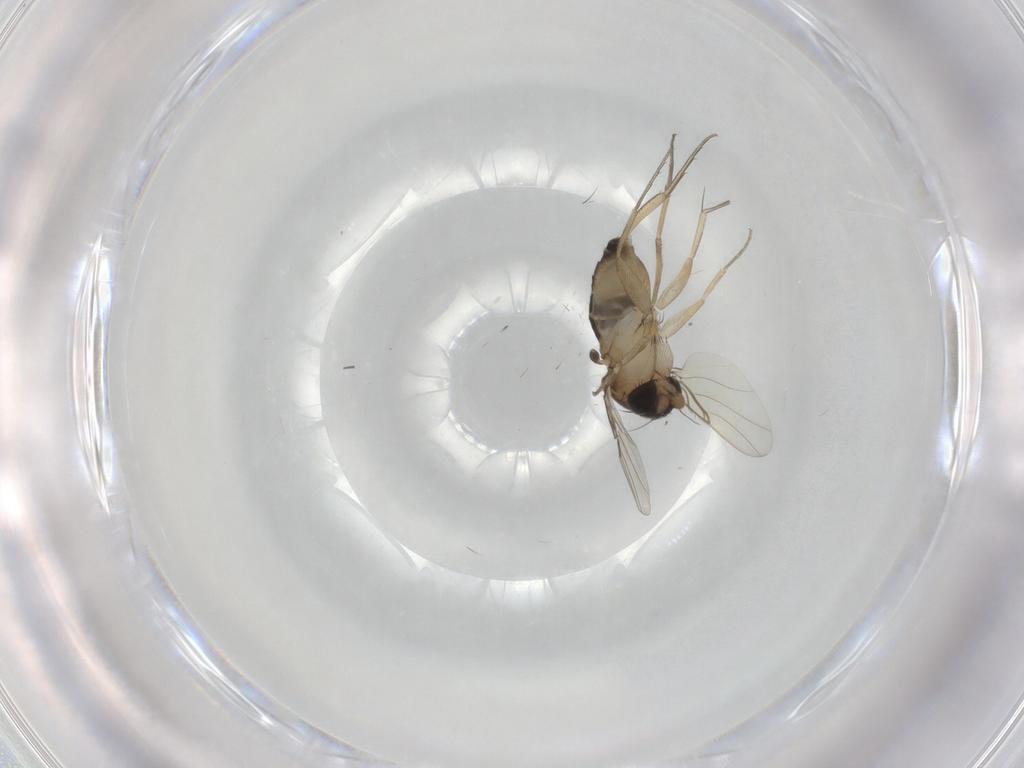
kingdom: Animalia
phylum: Arthropoda
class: Insecta
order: Diptera
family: Phoridae
